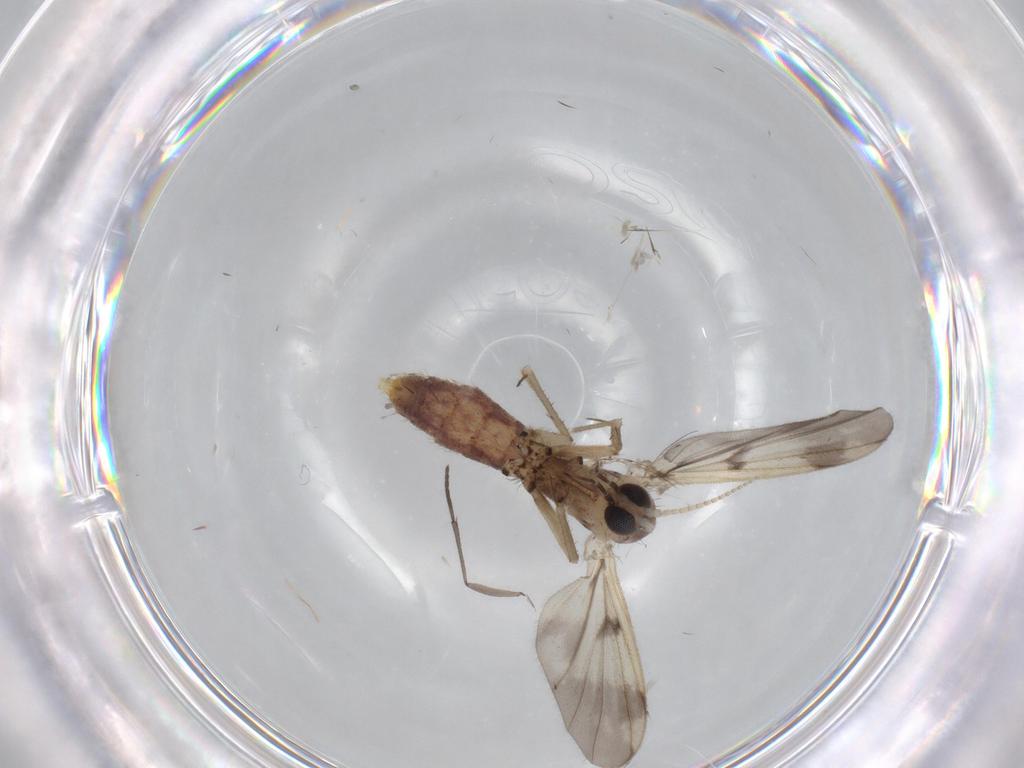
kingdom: Animalia
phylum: Arthropoda
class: Insecta
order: Diptera
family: Mycetophilidae
